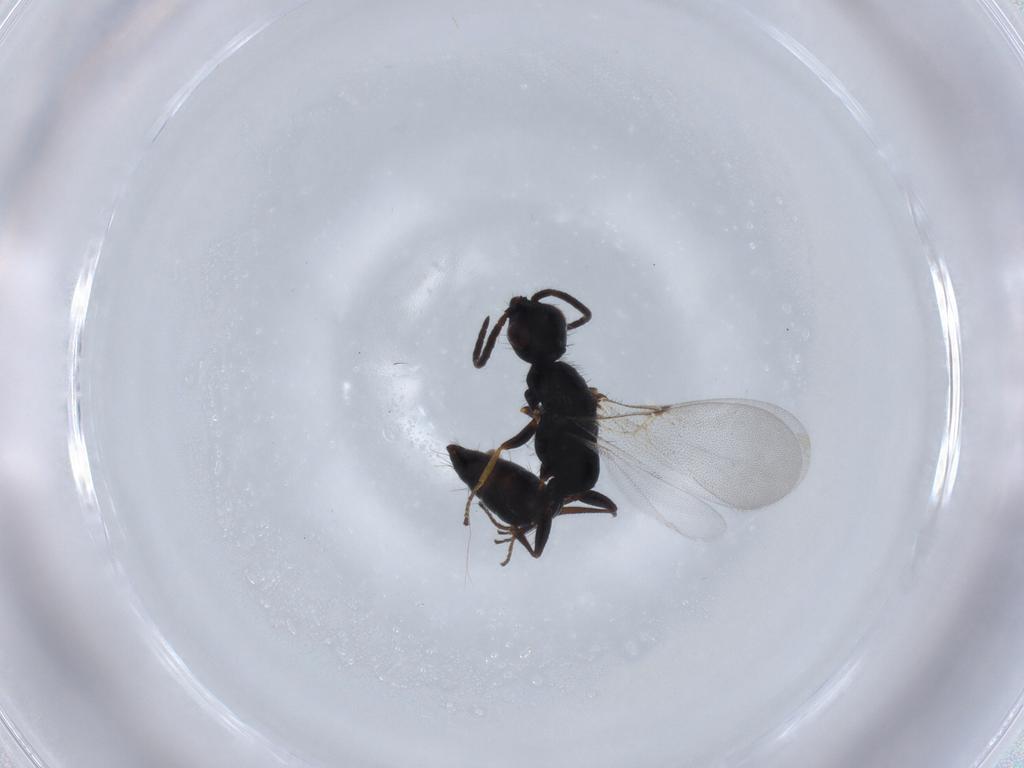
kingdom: Animalia
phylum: Arthropoda
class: Insecta
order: Hymenoptera
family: Bethylidae
